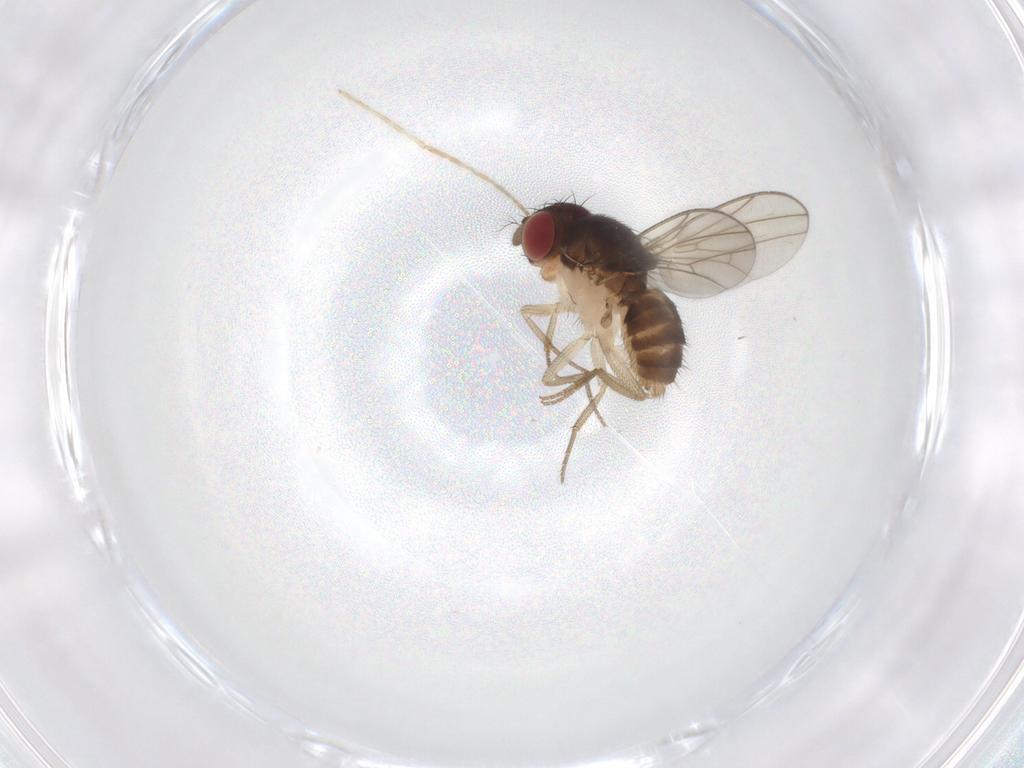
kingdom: Animalia
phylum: Arthropoda
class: Insecta
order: Diptera
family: Drosophilidae
